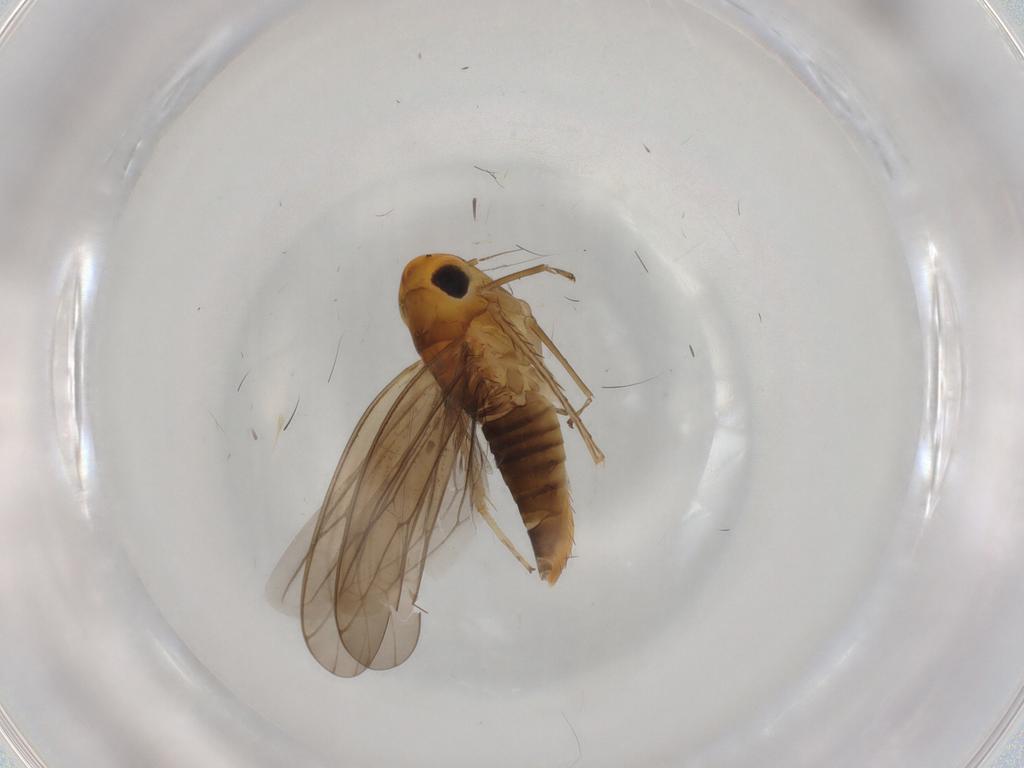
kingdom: Animalia
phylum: Arthropoda
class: Insecta
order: Hemiptera
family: Cicadellidae
